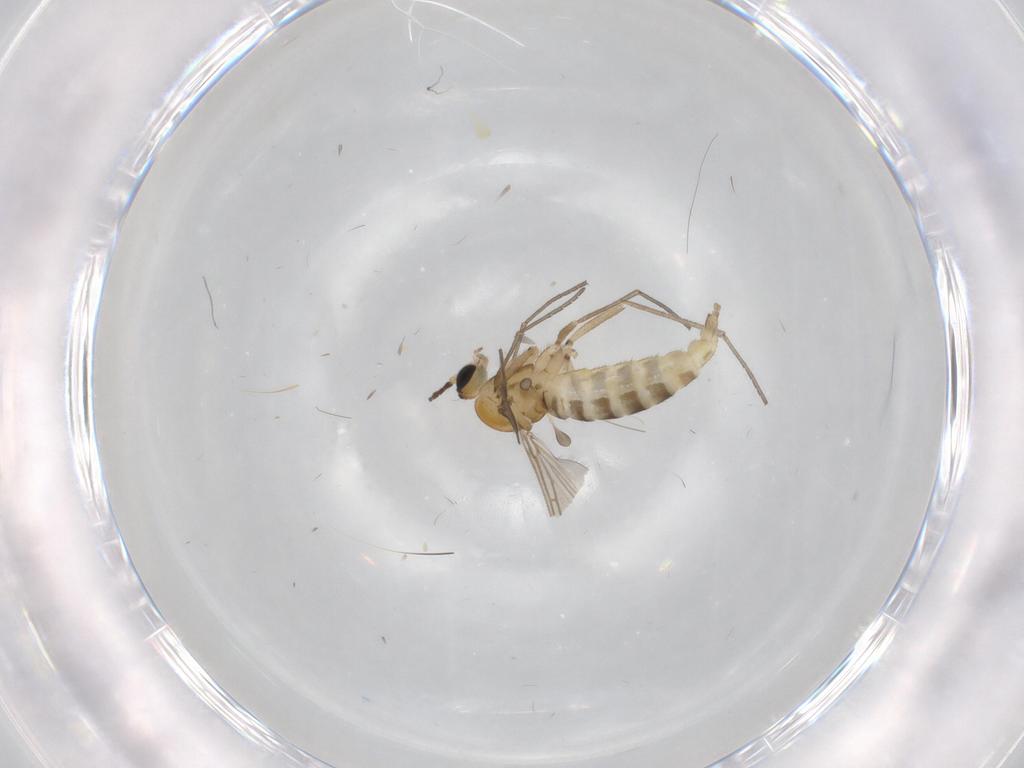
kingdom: Animalia
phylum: Arthropoda
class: Insecta
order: Diptera
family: Sciaridae
